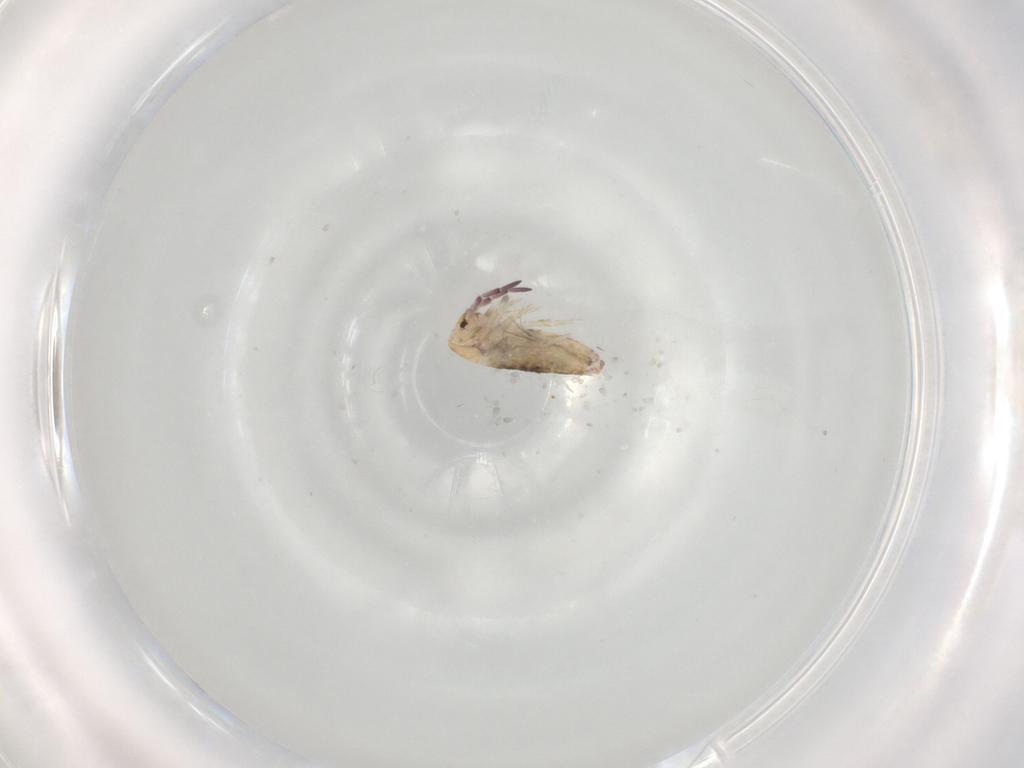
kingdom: Animalia
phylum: Arthropoda
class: Collembola
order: Entomobryomorpha
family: Entomobryidae
